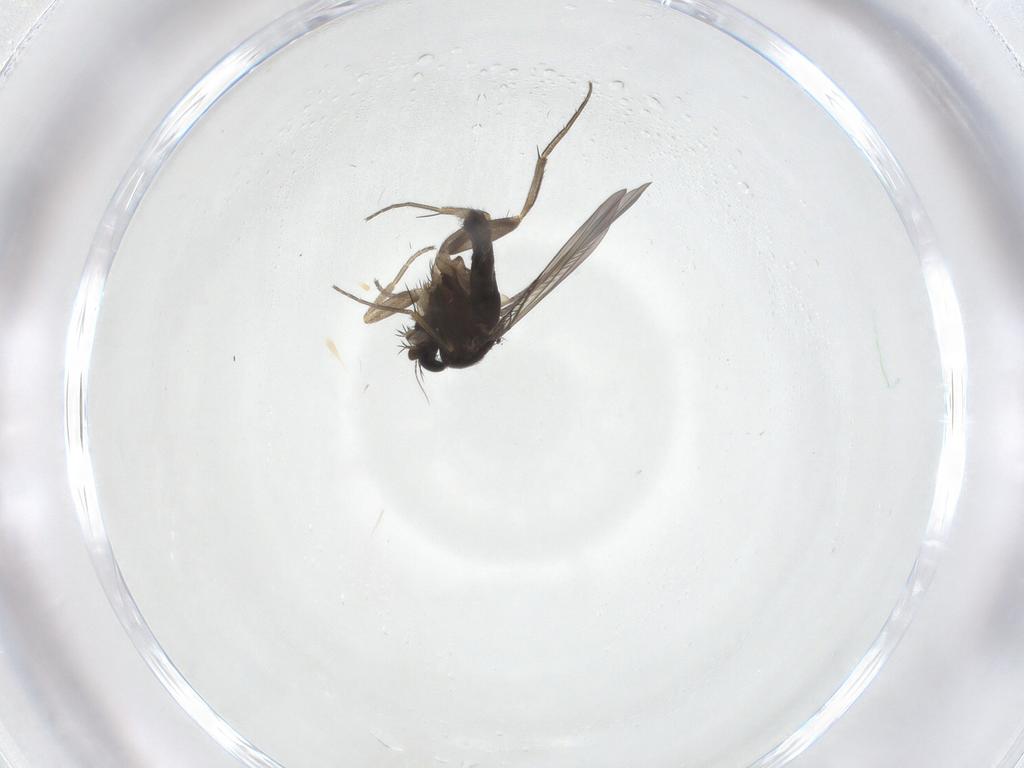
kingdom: Animalia
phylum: Arthropoda
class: Insecta
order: Diptera
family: Phoridae
